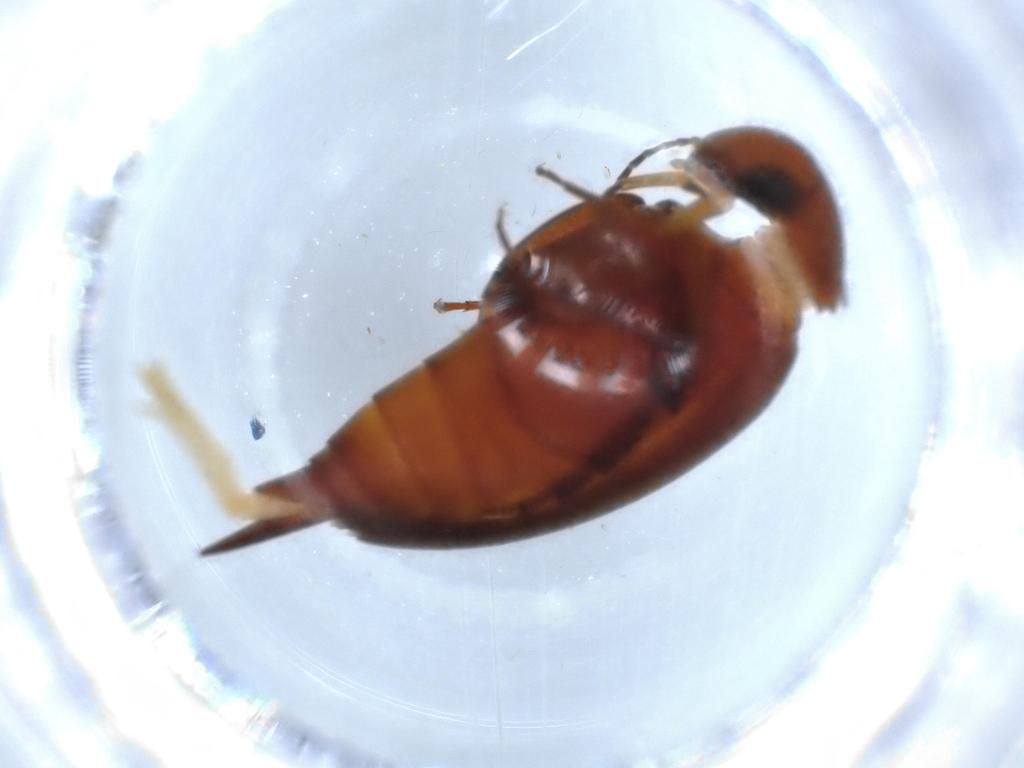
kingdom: Animalia
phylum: Arthropoda
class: Insecta
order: Coleoptera
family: Mordellidae
